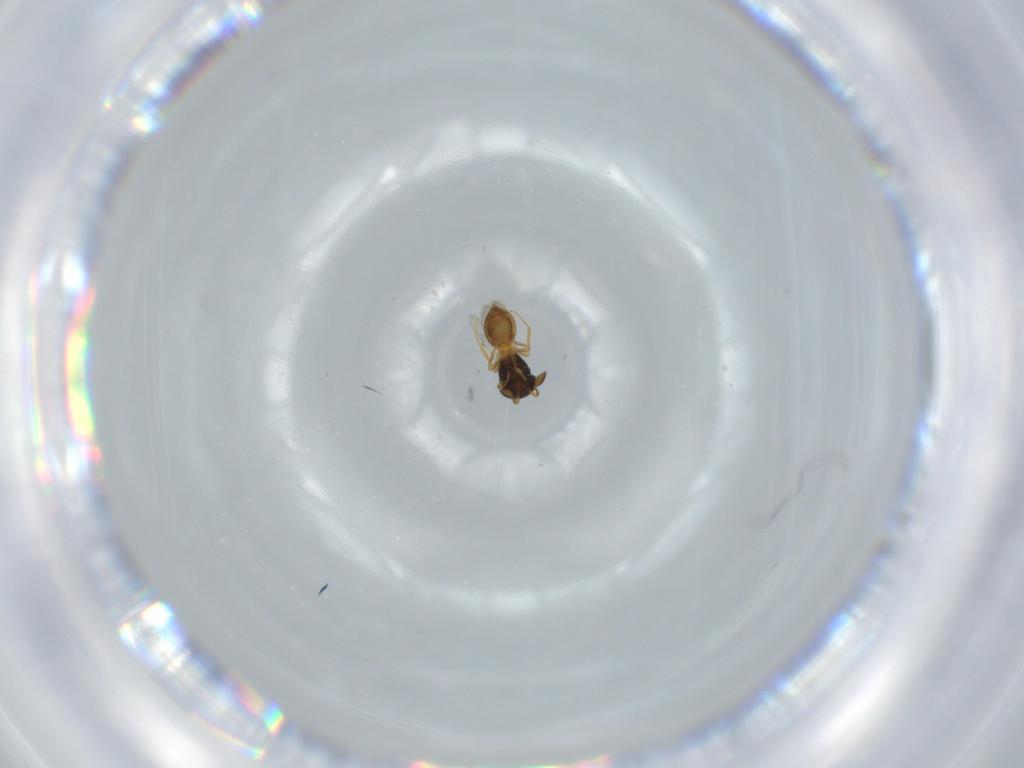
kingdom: Animalia
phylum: Arthropoda
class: Insecta
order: Hymenoptera
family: Scelionidae
